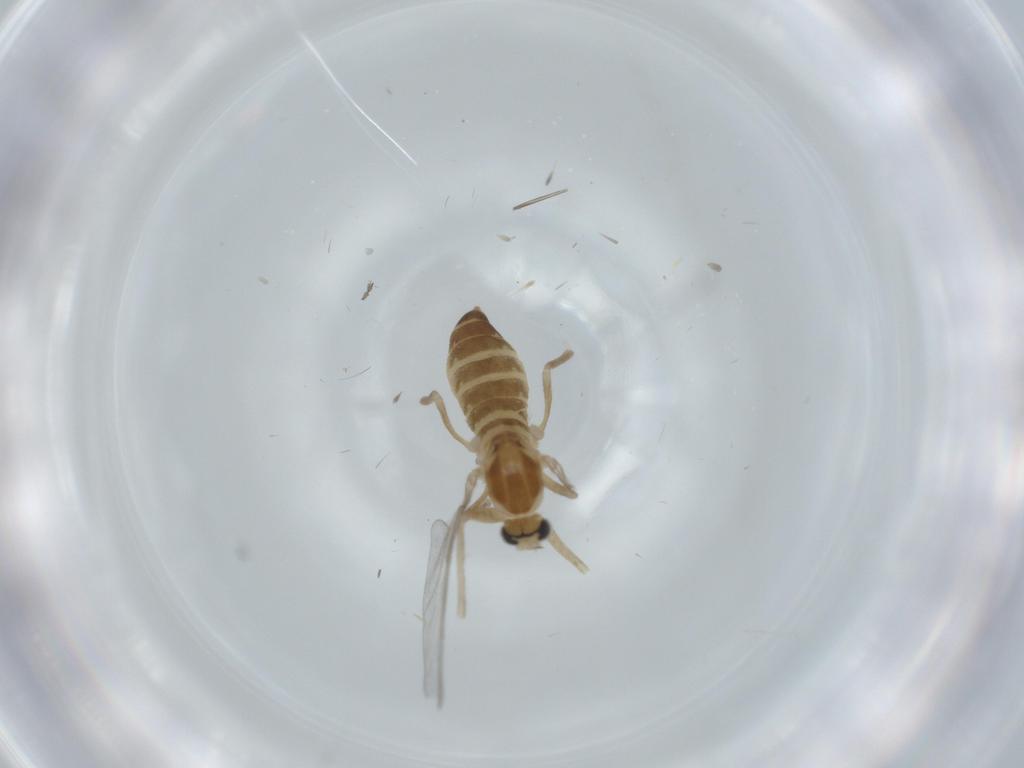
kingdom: Animalia
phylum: Arthropoda
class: Insecta
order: Diptera
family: Cecidomyiidae
